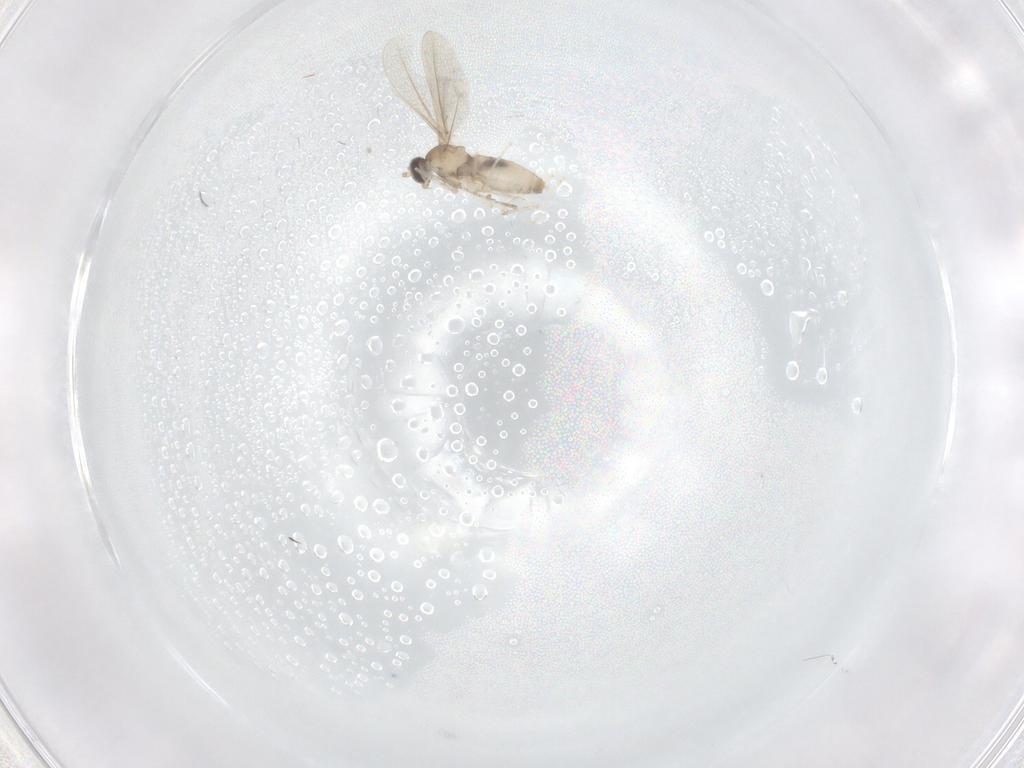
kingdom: Animalia
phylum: Arthropoda
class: Insecta
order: Diptera
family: Cecidomyiidae
